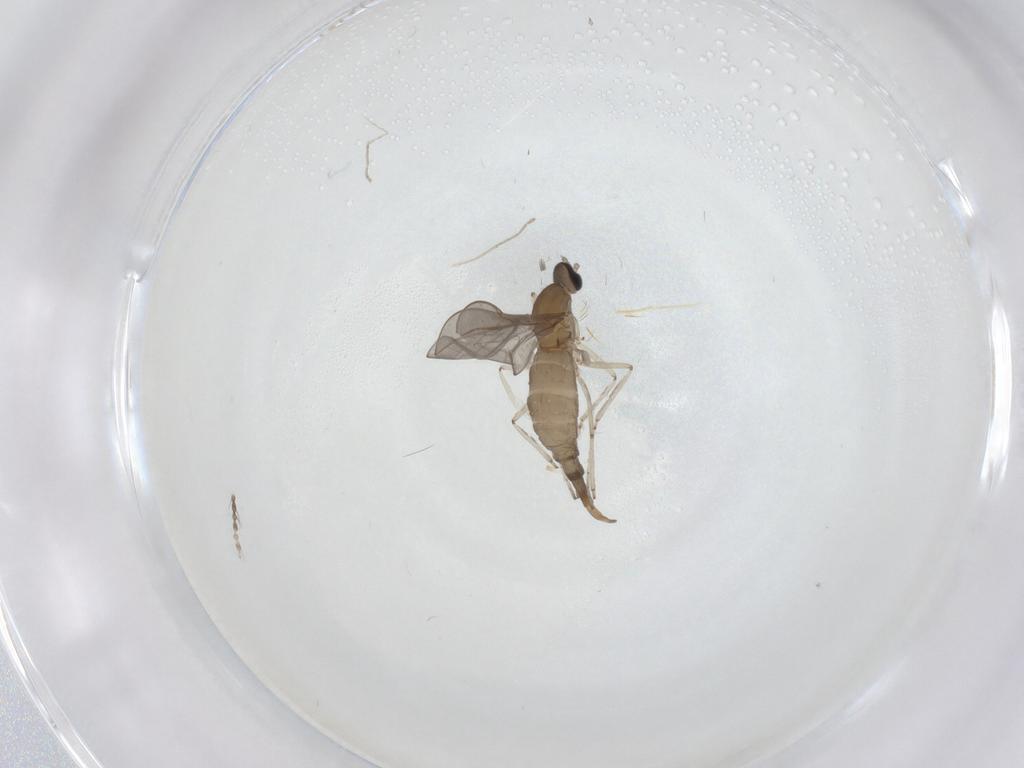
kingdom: Animalia
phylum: Arthropoda
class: Insecta
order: Diptera
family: Cecidomyiidae
